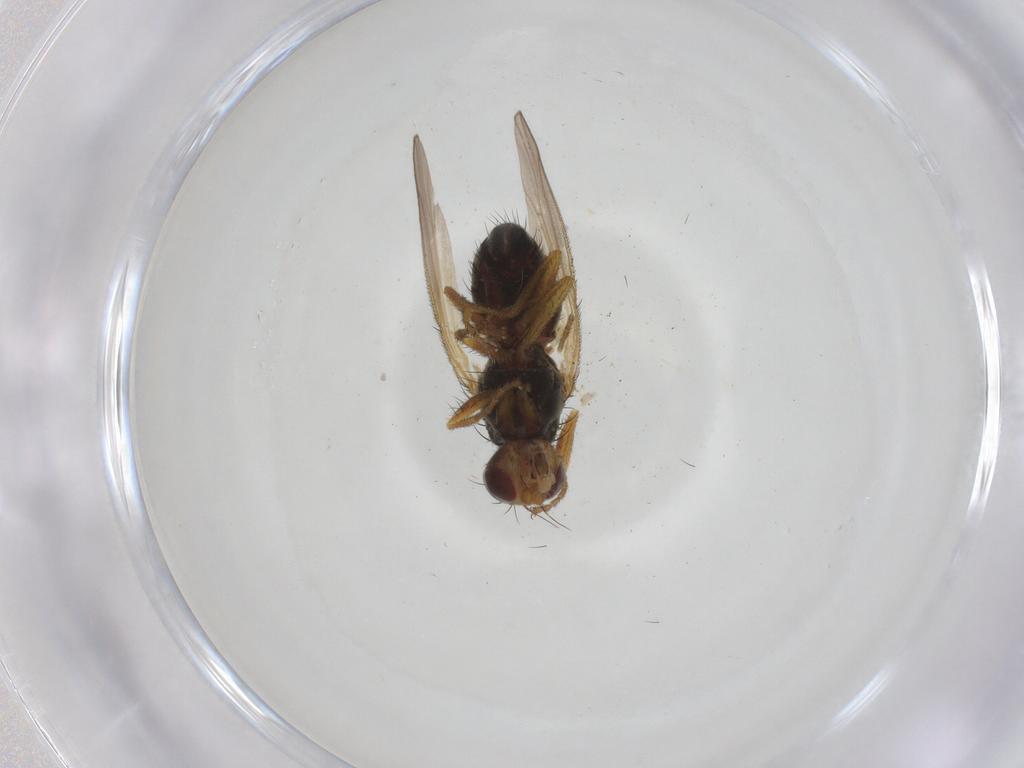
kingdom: Animalia
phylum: Arthropoda
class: Insecta
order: Diptera
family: Heleomyzidae
